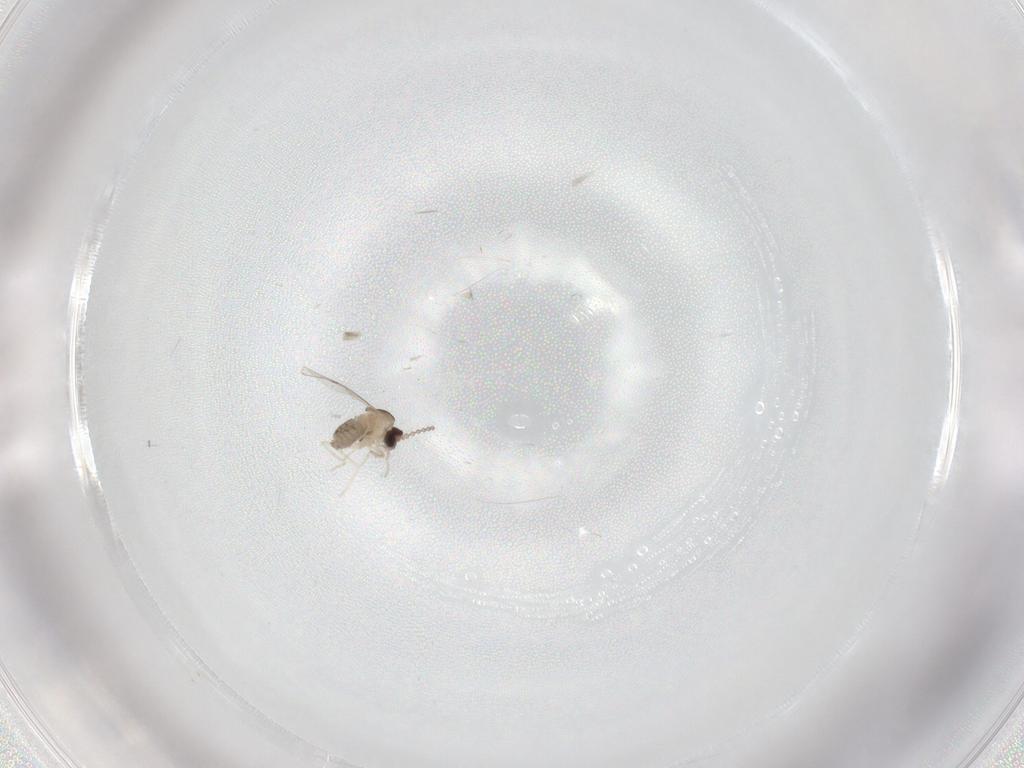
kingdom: Animalia
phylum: Arthropoda
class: Insecta
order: Diptera
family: Cecidomyiidae
